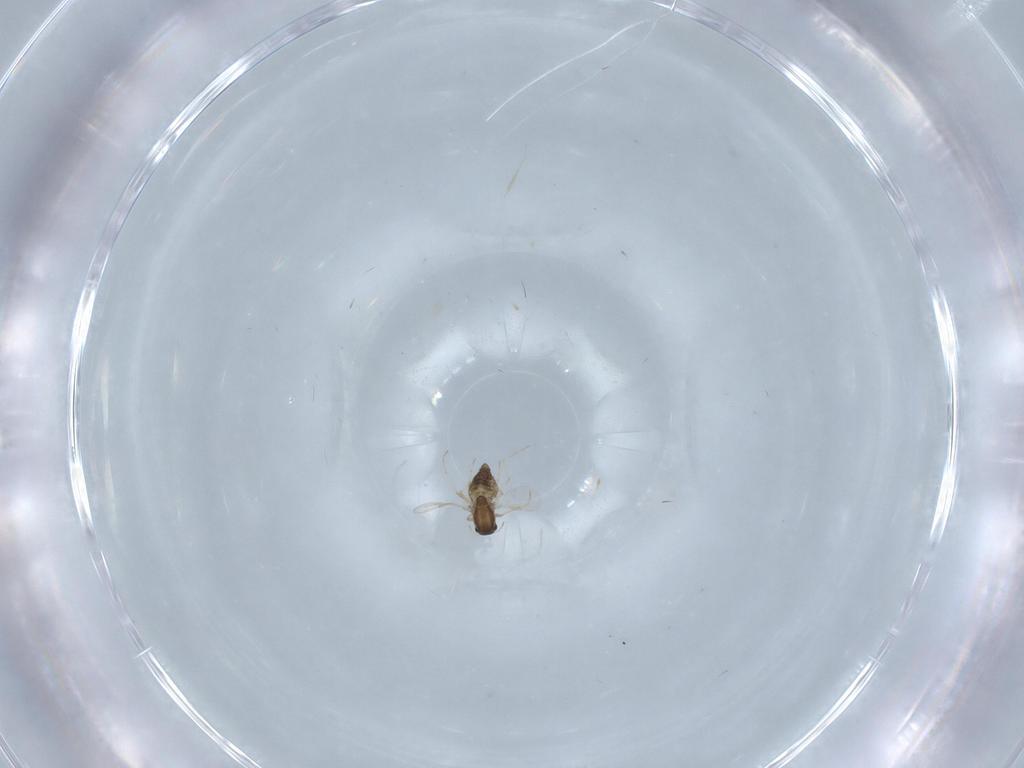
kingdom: Animalia
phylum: Arthropoda
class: Insecta
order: Diptera
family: Chironomidae
